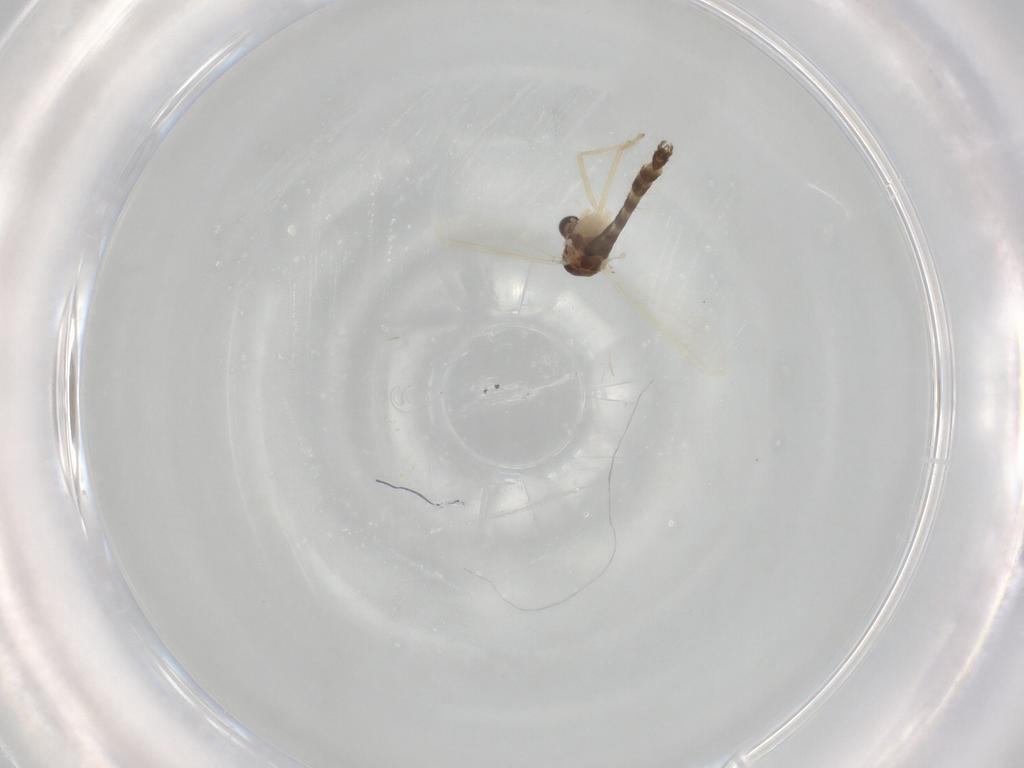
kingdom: Animalia
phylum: Arthropoda
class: Insecta
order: Diptera
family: Chironomidae
